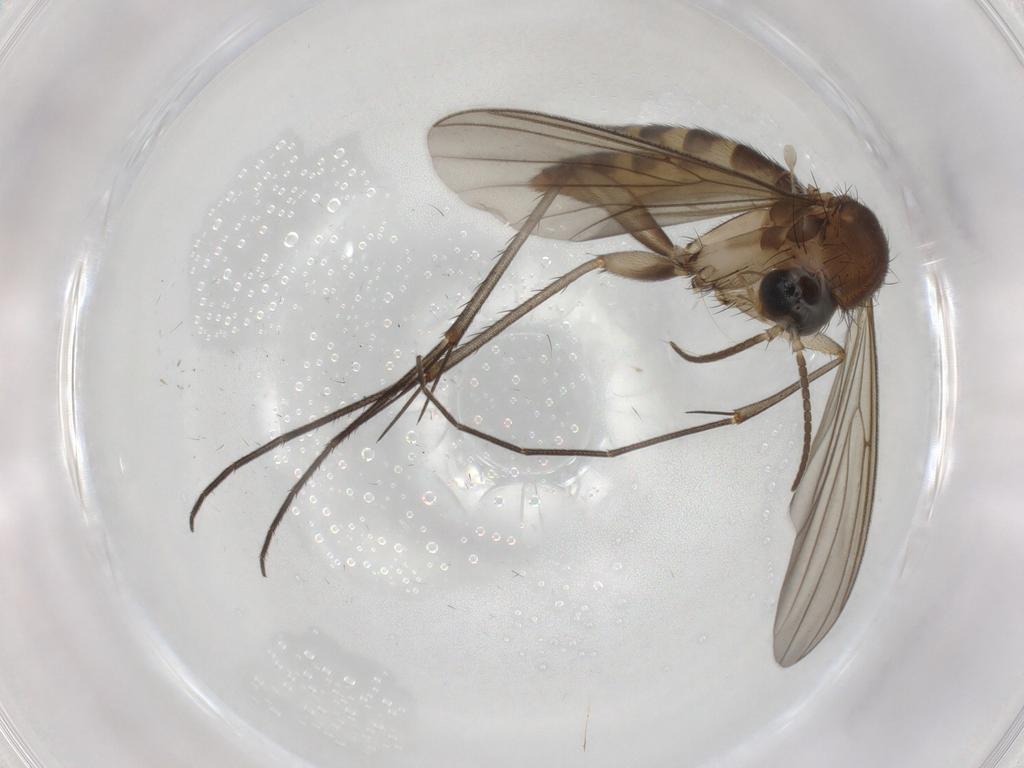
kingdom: Animalia
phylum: Arthropoda
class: Insecta
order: Diptera
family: Mycetophilidae
